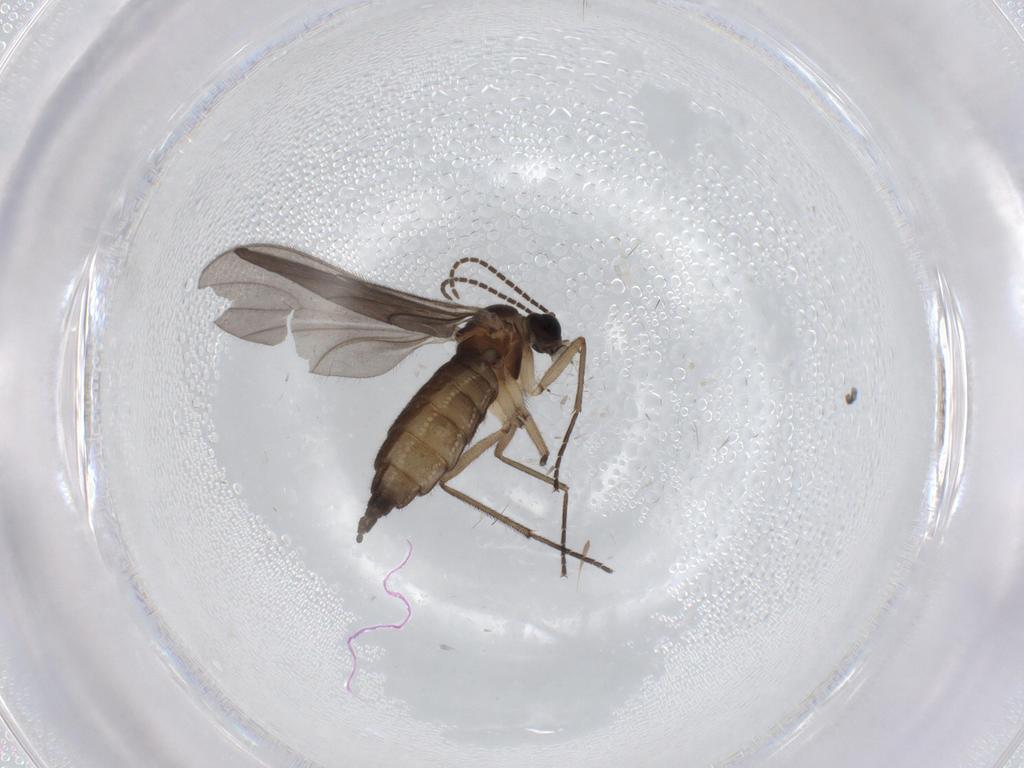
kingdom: Animalia
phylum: Arthropoda
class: Insecta
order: Diptera
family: Sciaridae
